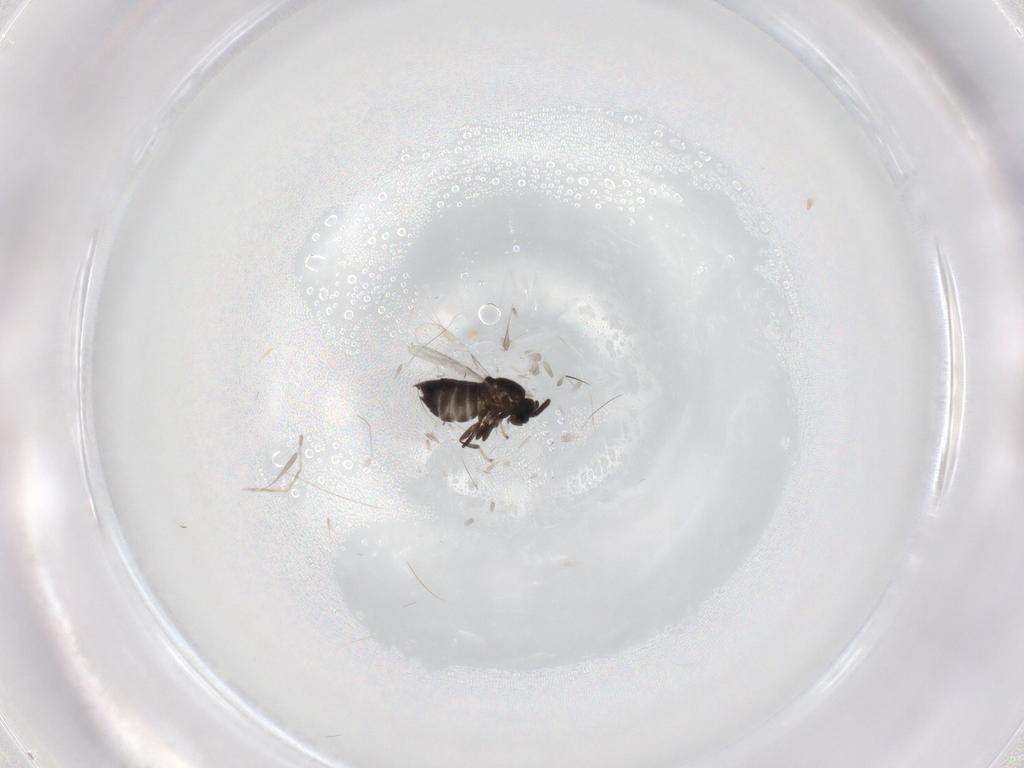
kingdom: Animalia
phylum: Arthropoda
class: Insecta
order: Diptera
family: Scatopsidae
